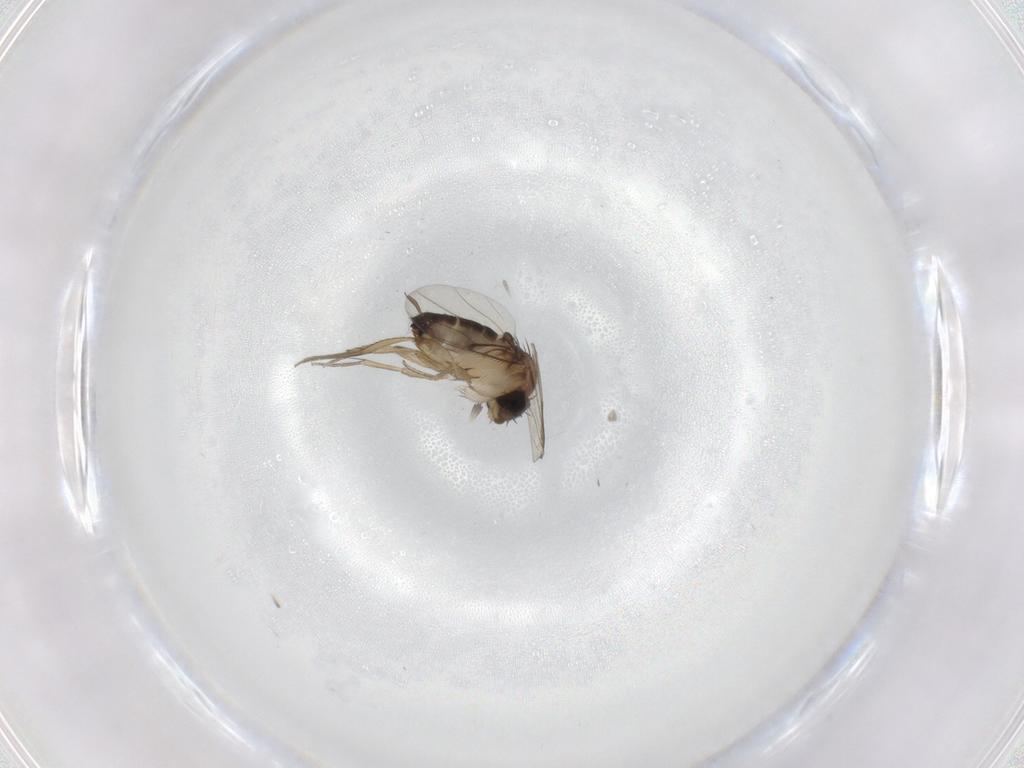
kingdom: Animalia
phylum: Arthropoda
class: Insecta
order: Diptera
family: Phoridae
